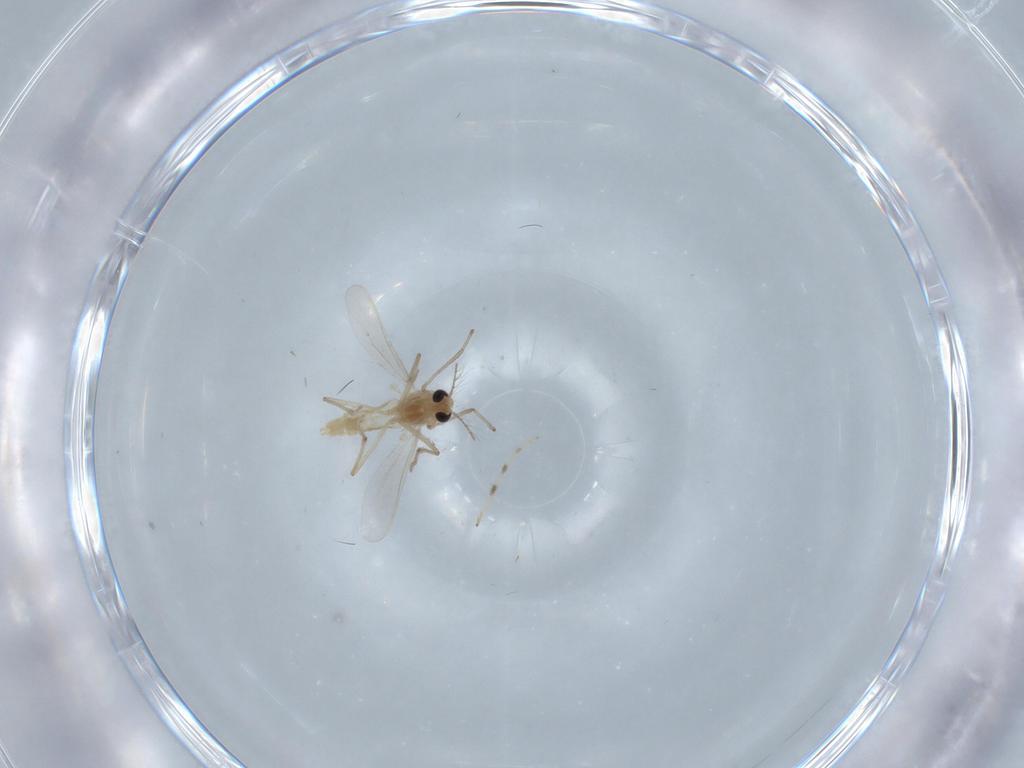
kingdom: Animalia
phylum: Arthropoda
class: Insecta
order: Diptera
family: Chironomidae
